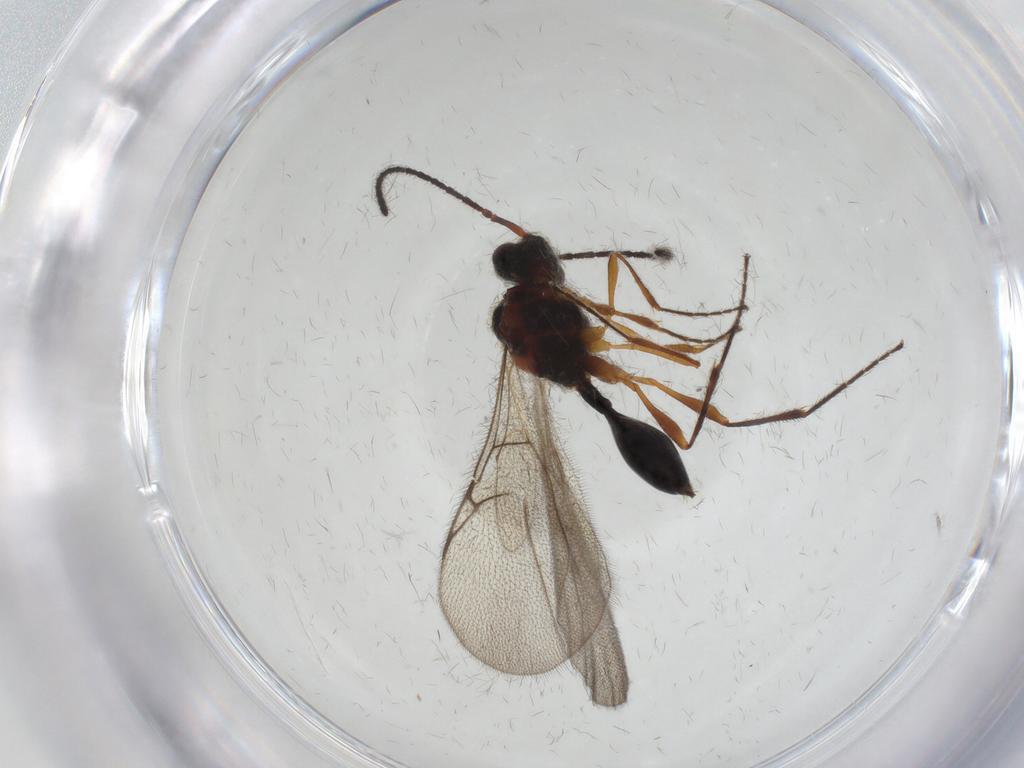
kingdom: Animalia
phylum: Arthropoda
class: Insecta
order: Hymenoptera
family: Diapriidae
